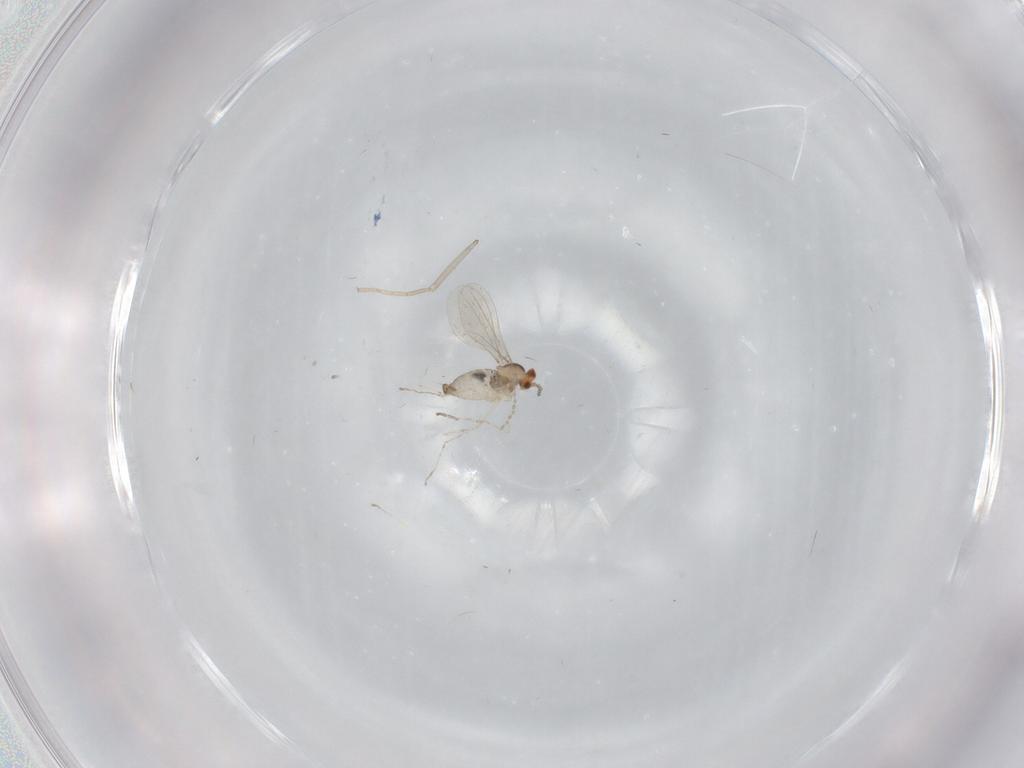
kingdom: Animalia
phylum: Arthropoda
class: Insecta
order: Diptera
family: Cecidomyiidae
